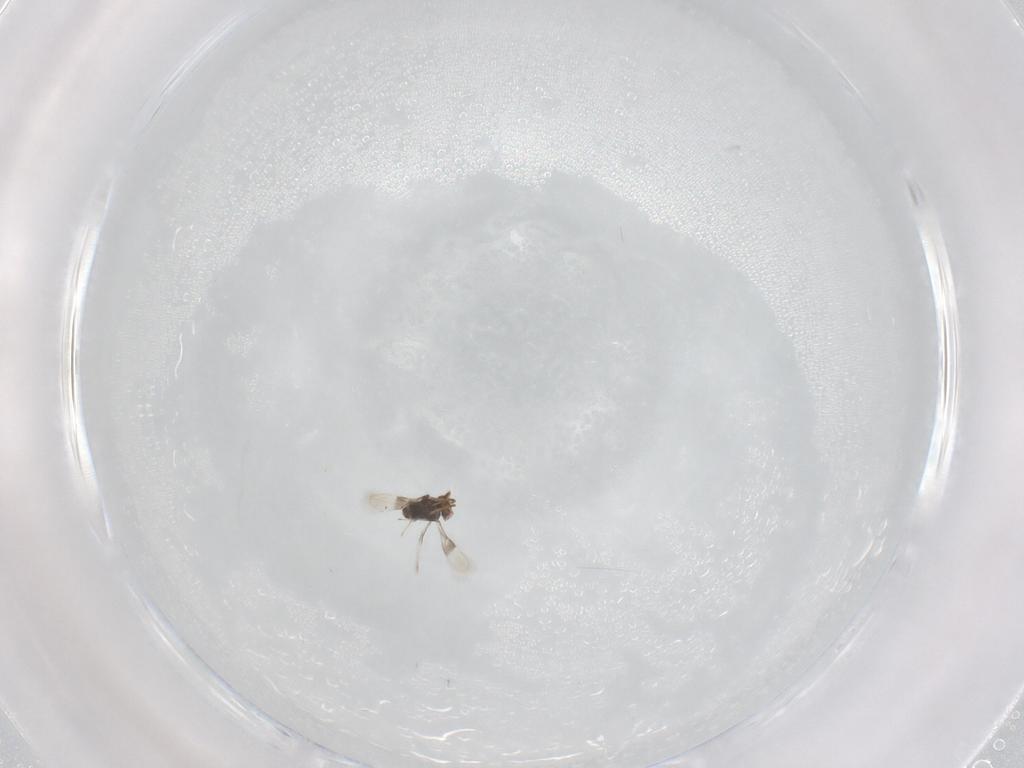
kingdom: Animalia
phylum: Arthropoda
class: Insecta
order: Hymenoptera
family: Azotidae
